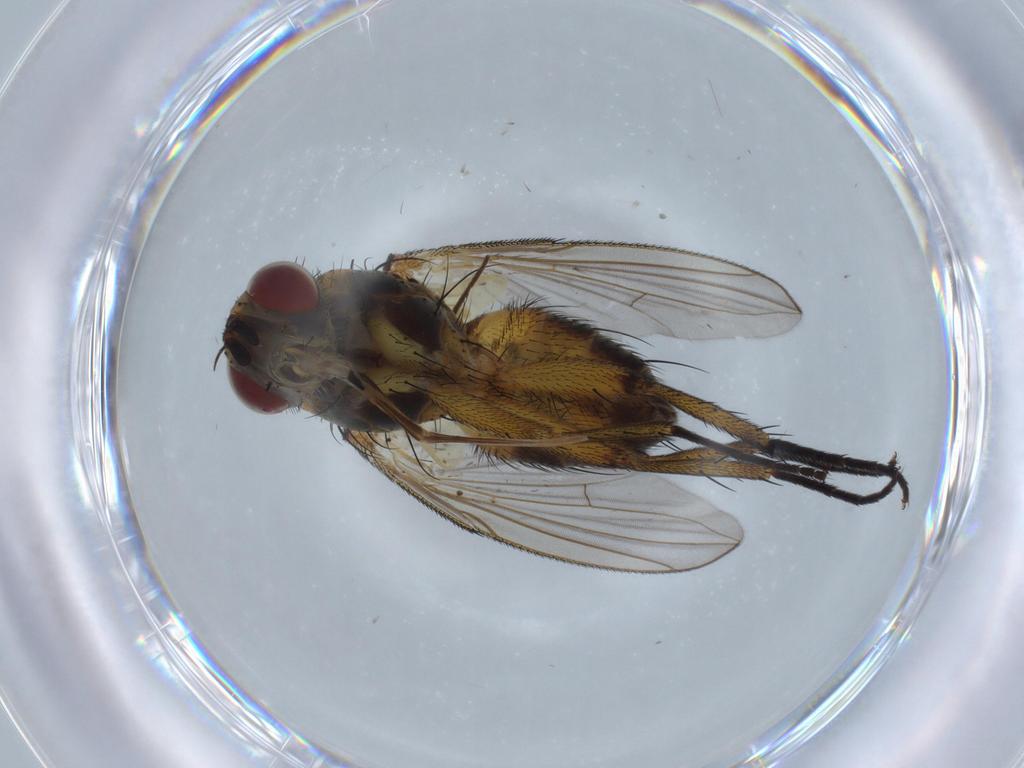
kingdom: Animalia
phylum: Arthropoda
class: Insecta
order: Diptera
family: Tachinidae
